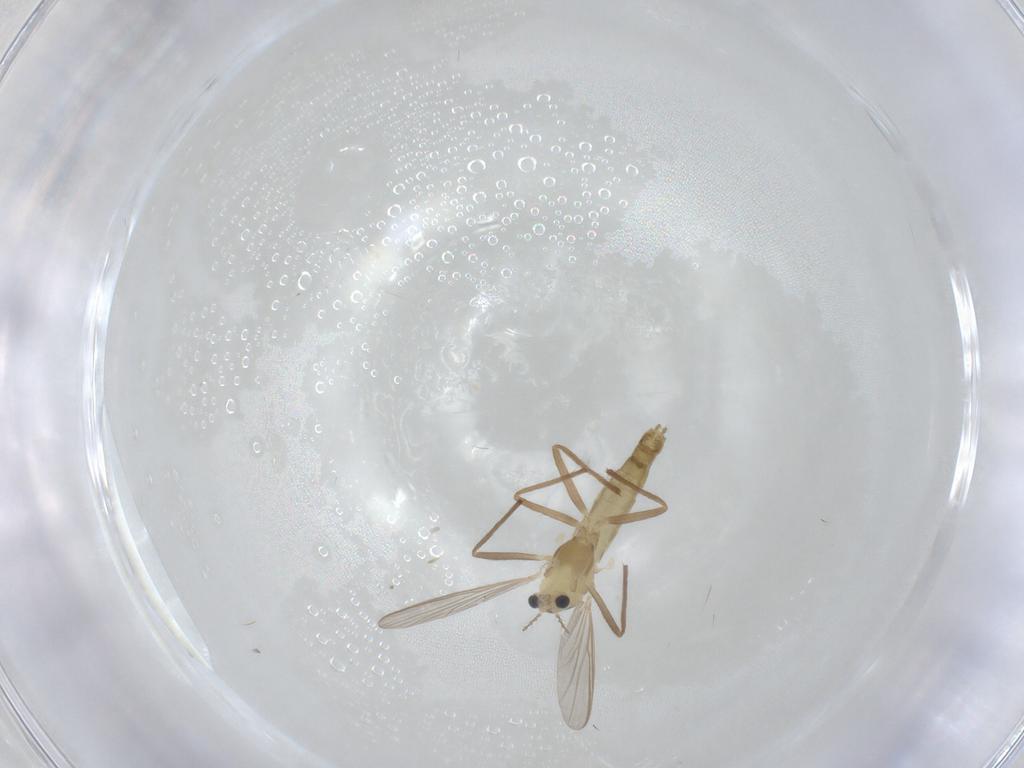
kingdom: Animalia
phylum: Arthropoda
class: Insecta
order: Diptera
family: Chironomidae
